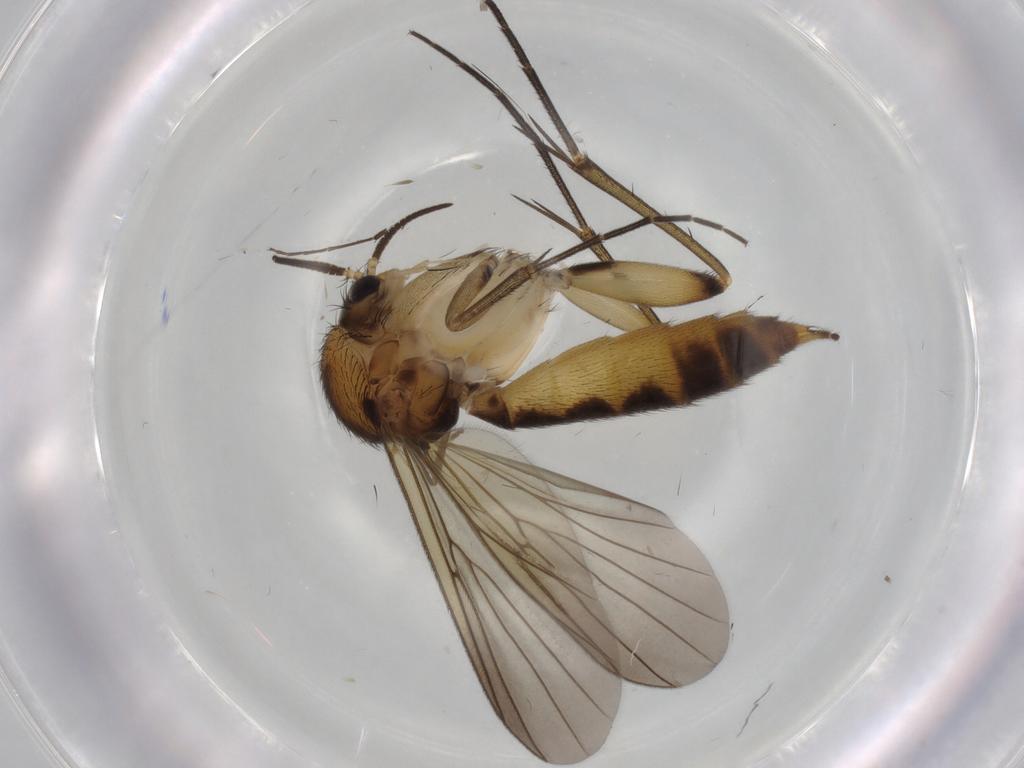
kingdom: Animalia
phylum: Arthropoda
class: Insecta
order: Diptera
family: Mycetophilidae
